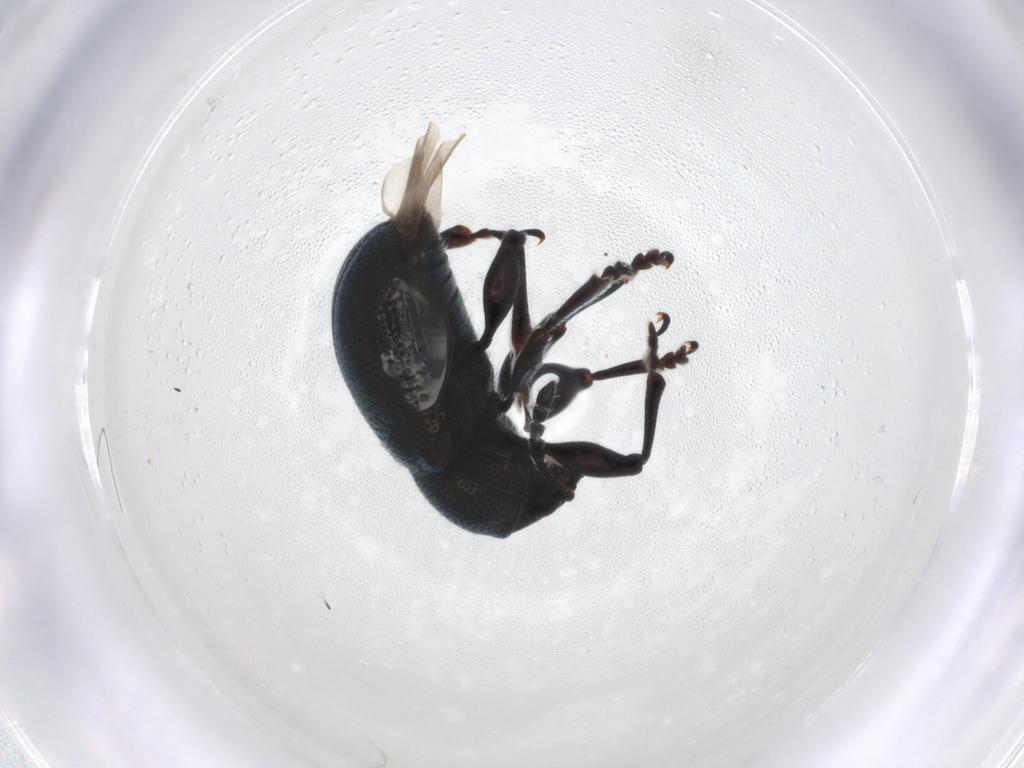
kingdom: Animalia
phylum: Arthropoda
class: Insecta
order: Coleoptera
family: Chrysomelidae
